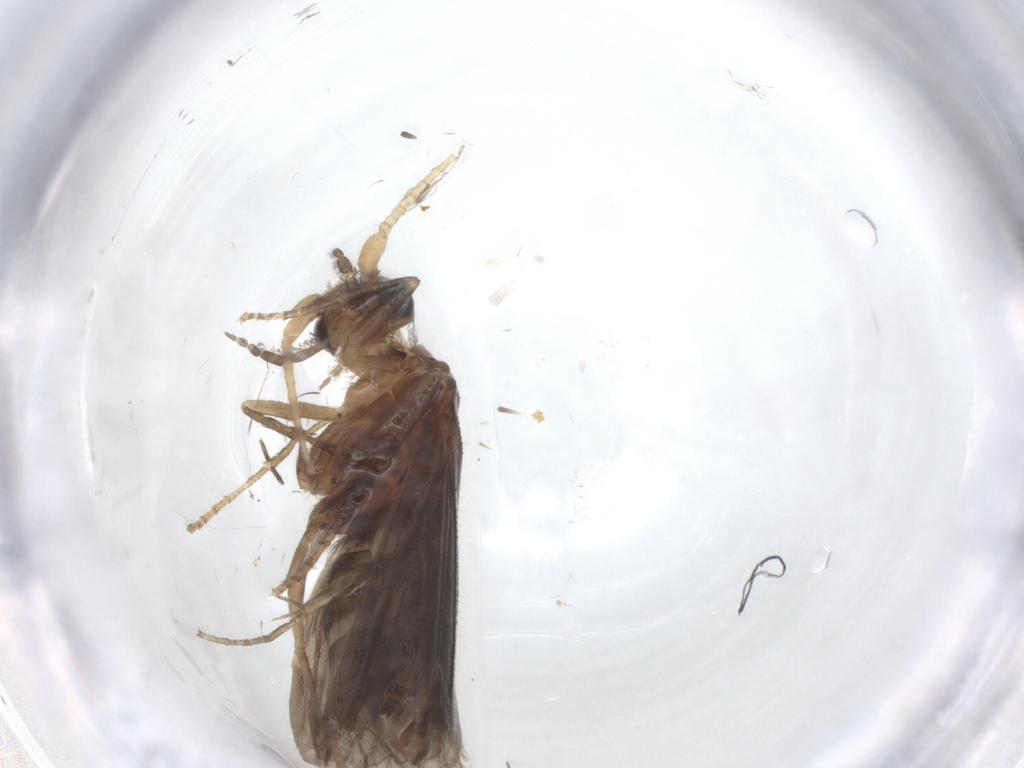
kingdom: Animalia
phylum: Arthropoda
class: Insecta
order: Trichoptera
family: Helicopsychidae
